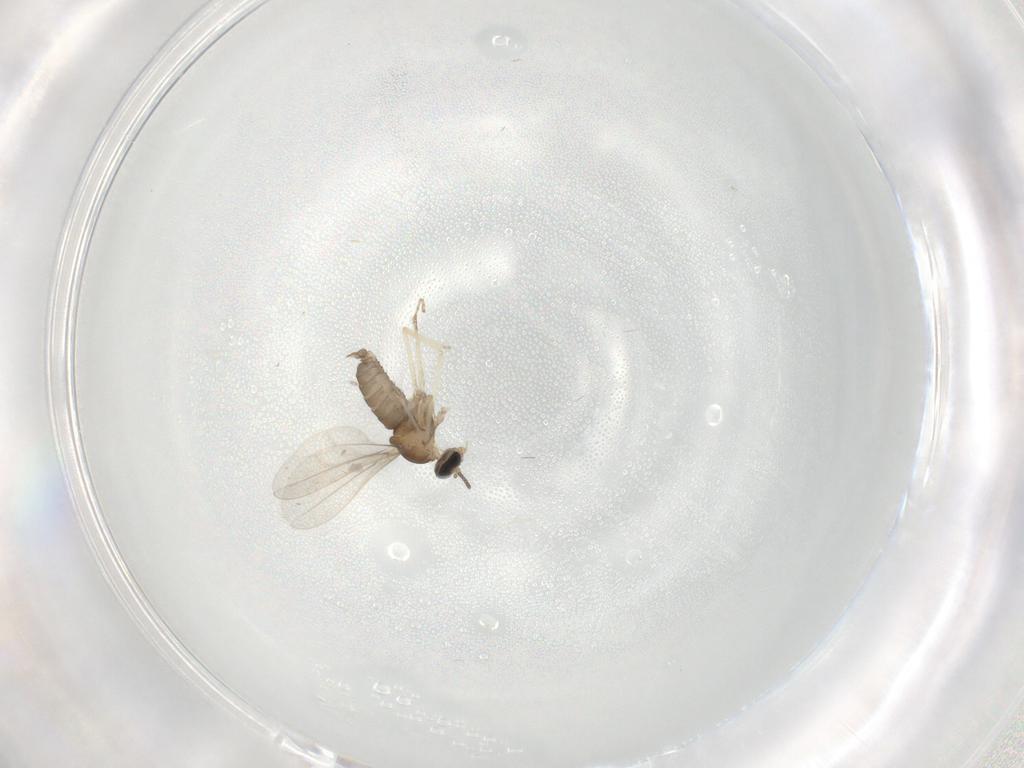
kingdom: Animalia
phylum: Arthropoda
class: Insecta
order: Diptera
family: Cecidomyiidae
